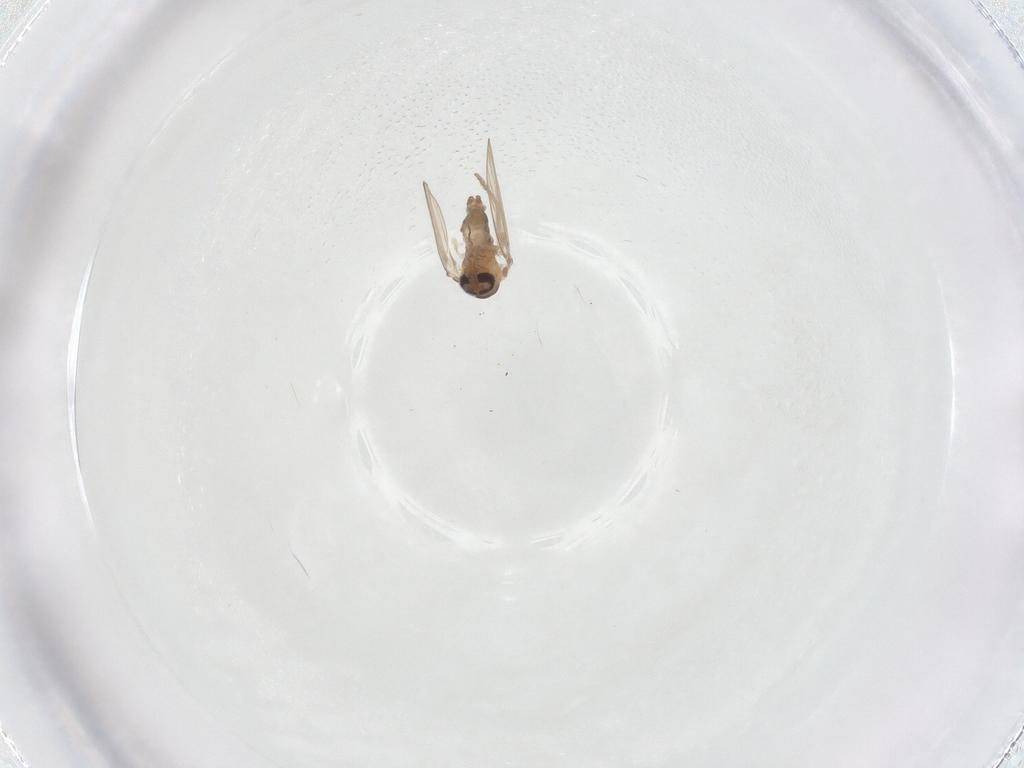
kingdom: Animalia
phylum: Arthropoda
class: Insecta
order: Diptera
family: Psychodidae
